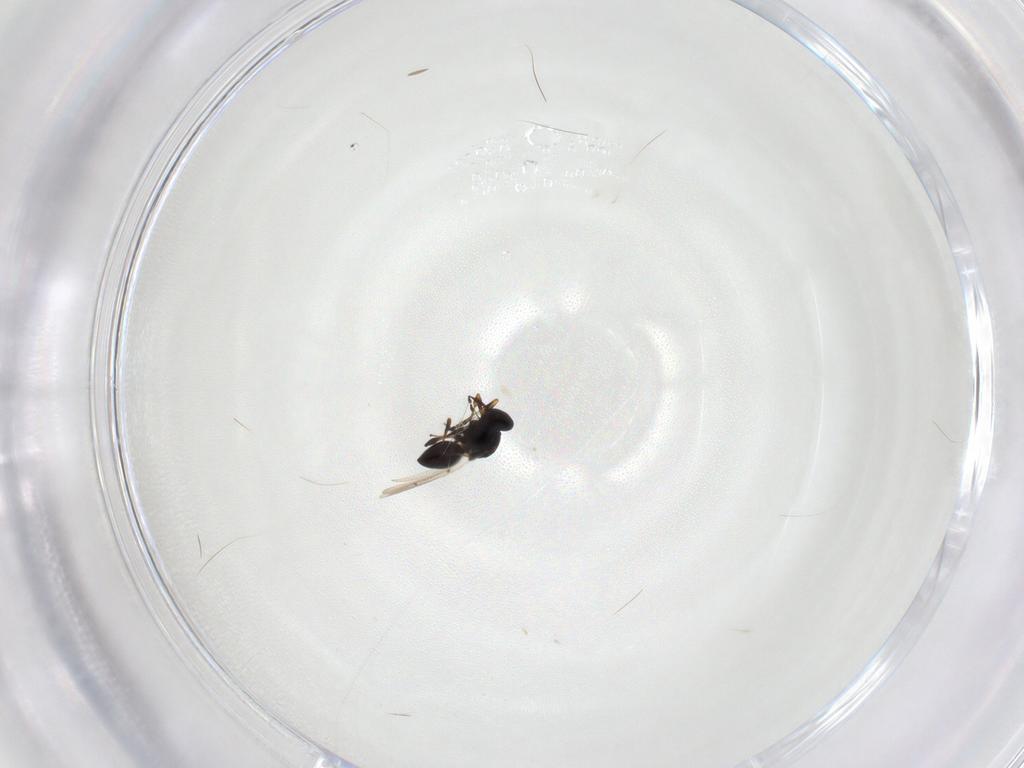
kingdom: Animalia
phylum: Arthropoda
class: Insecta
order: Hymenoptera
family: Platygastridae
